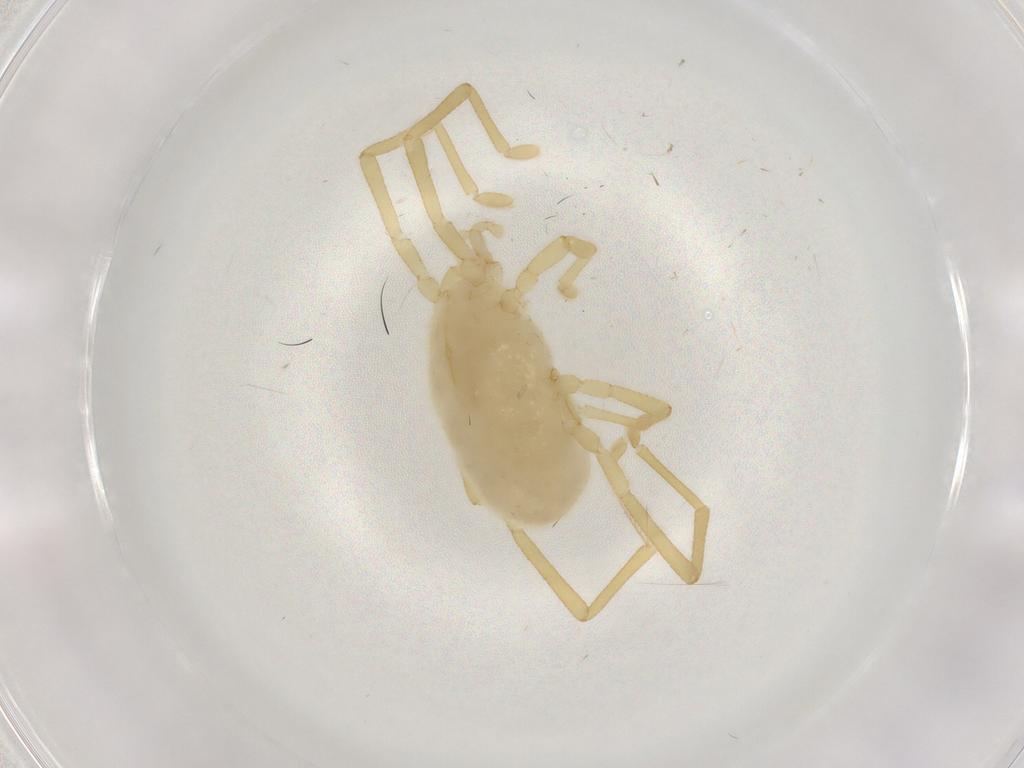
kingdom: Animalia
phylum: Arthropoda
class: Arachnida
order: Trombidiformes
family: Erythraeidae
